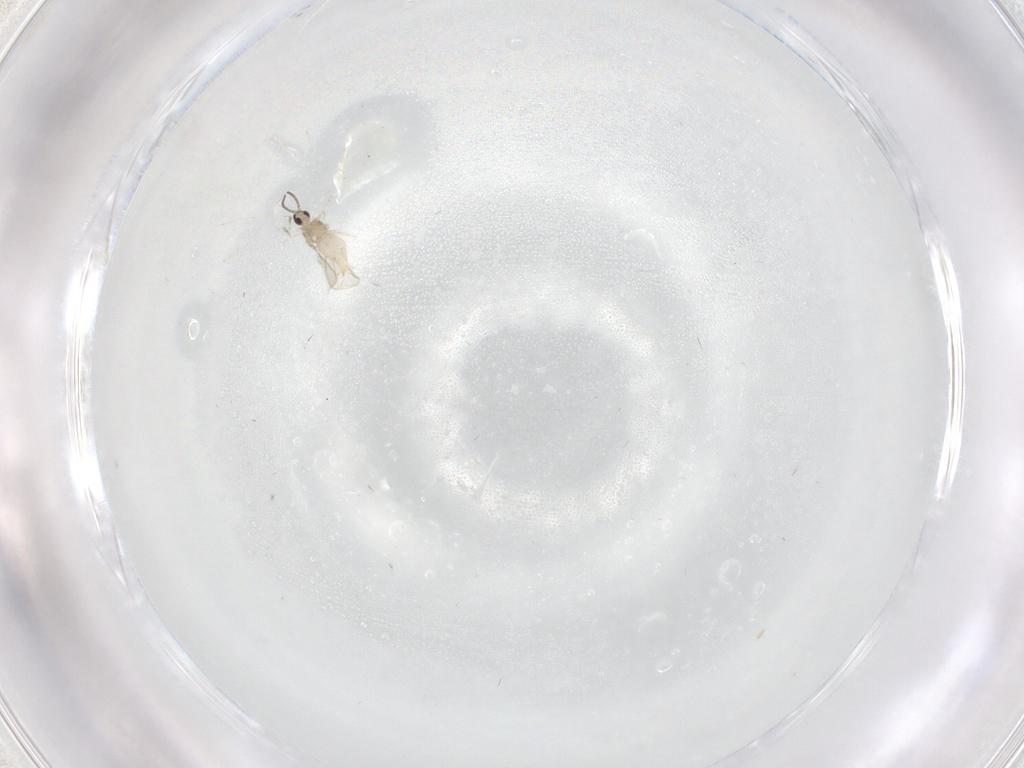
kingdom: Animalia
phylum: Arthropoda
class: Insecta
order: Diptera
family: Cecidomyiidae
